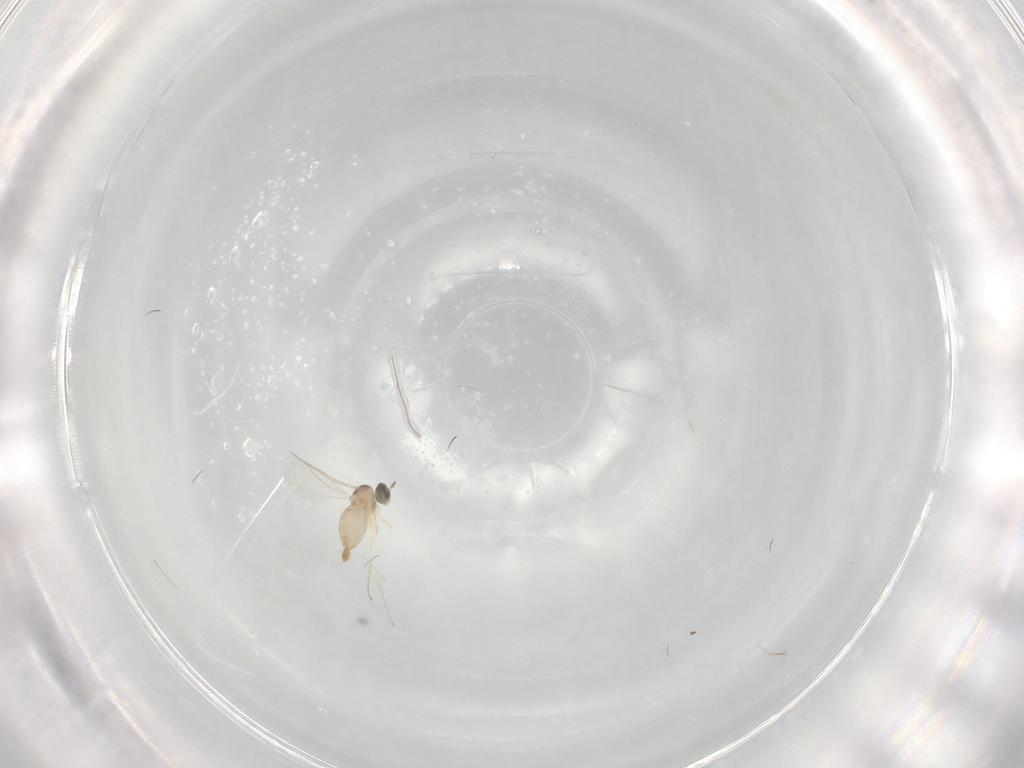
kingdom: Animalia
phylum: Arthropoda
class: Insecta
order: Diptera
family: Cecidomyiidae
